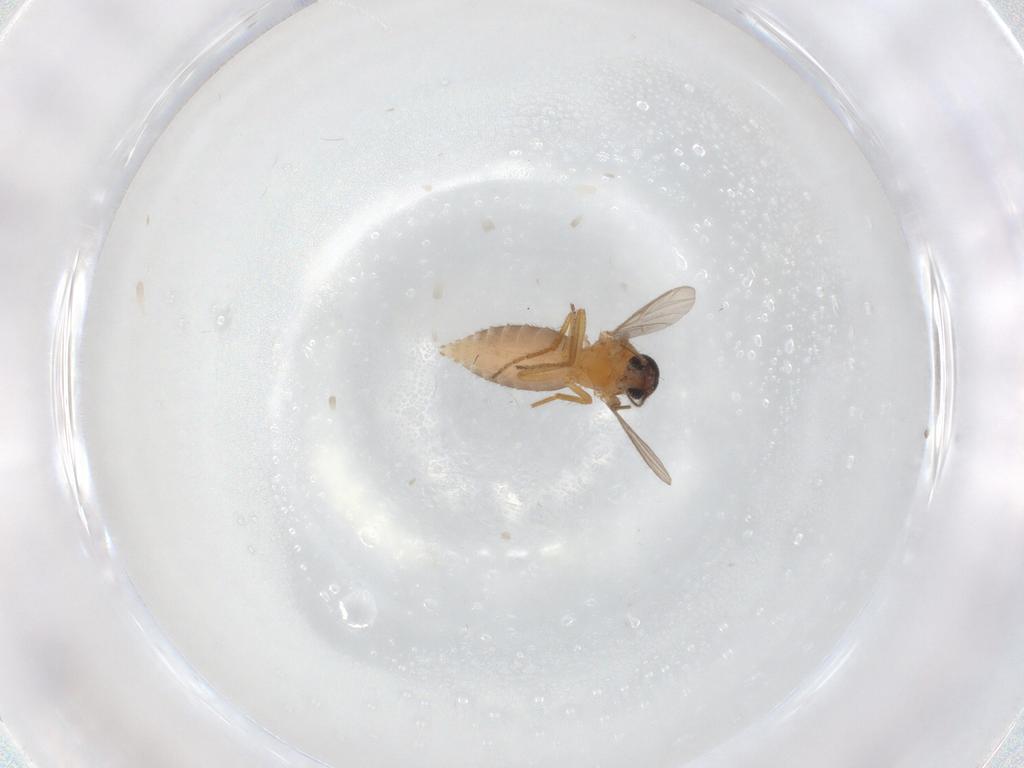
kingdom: Animalia
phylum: Arthropoda
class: Insecta
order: Diptera
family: Ceratopogonidae
